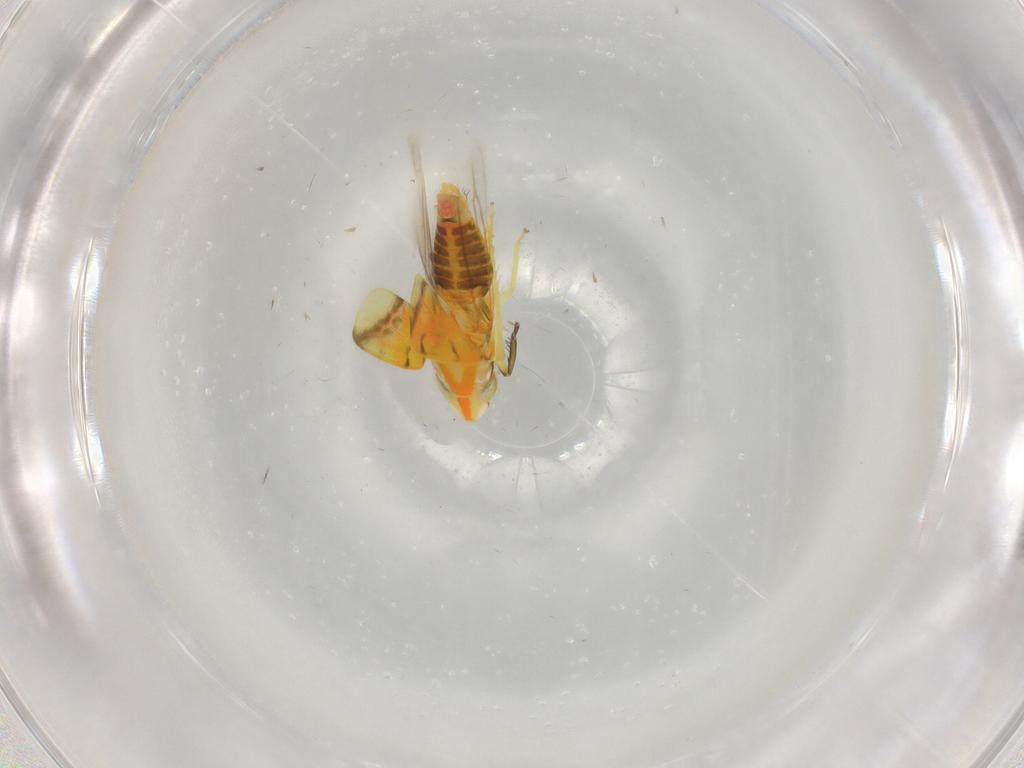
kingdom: Animalia
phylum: Arthropoda
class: Insecta
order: Hemiptera
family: Cicadellidae
